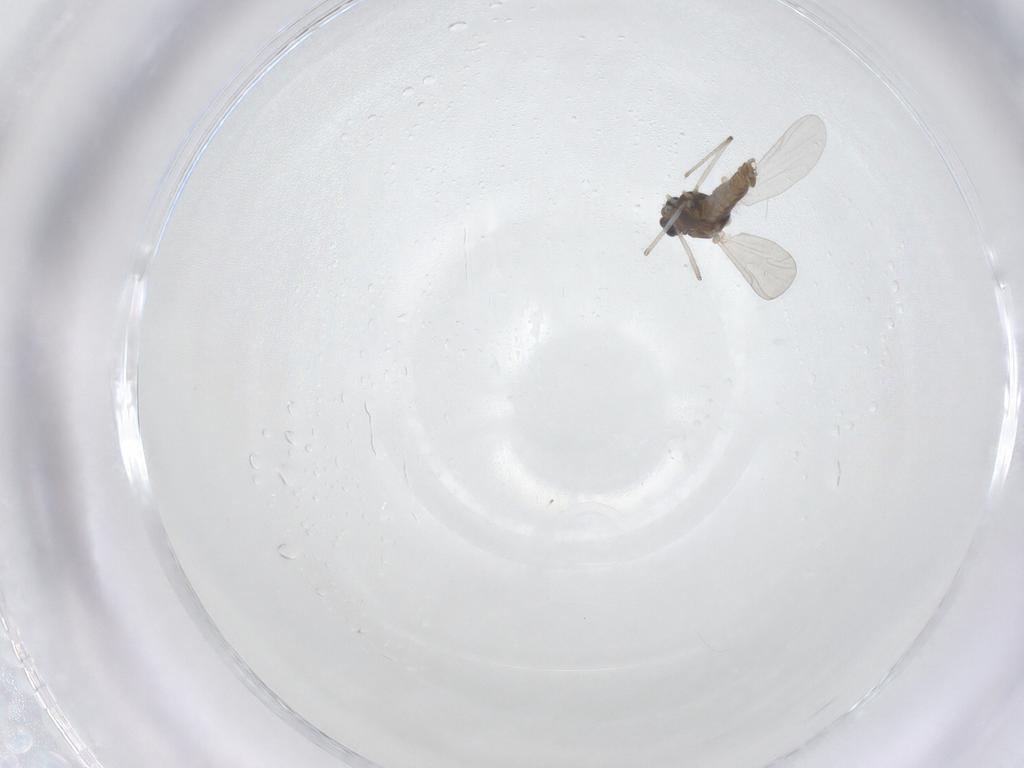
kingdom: Animalia
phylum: Arthropoda
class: Insecta
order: Diptera
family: Chironomidae
